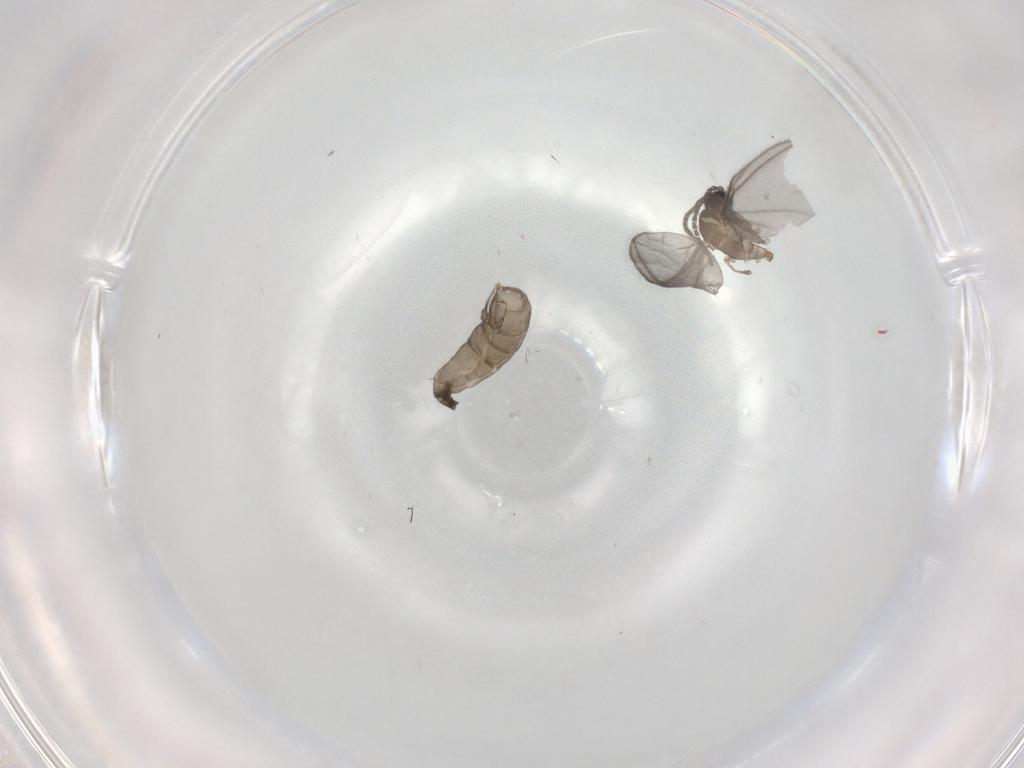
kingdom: Animalia
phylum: Arthropoda
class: Insecta
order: Diptera
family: Sciaridae
